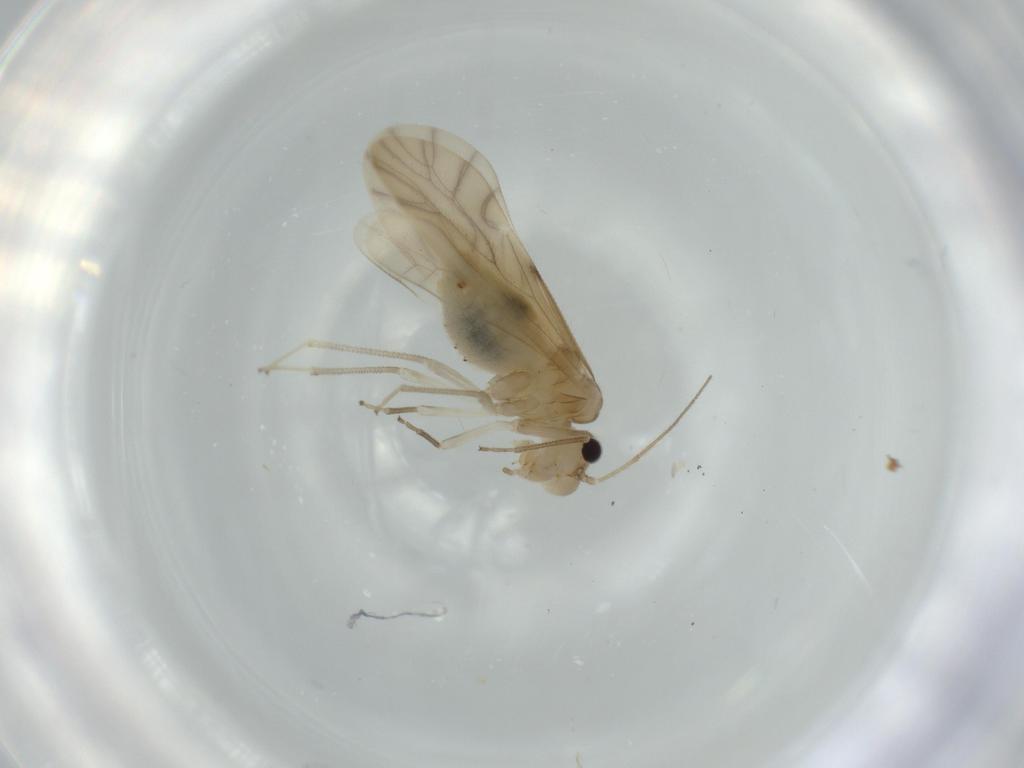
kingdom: Animalia
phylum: Arthropoda
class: Insecta
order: Psocodea
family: Caeciliusidae
